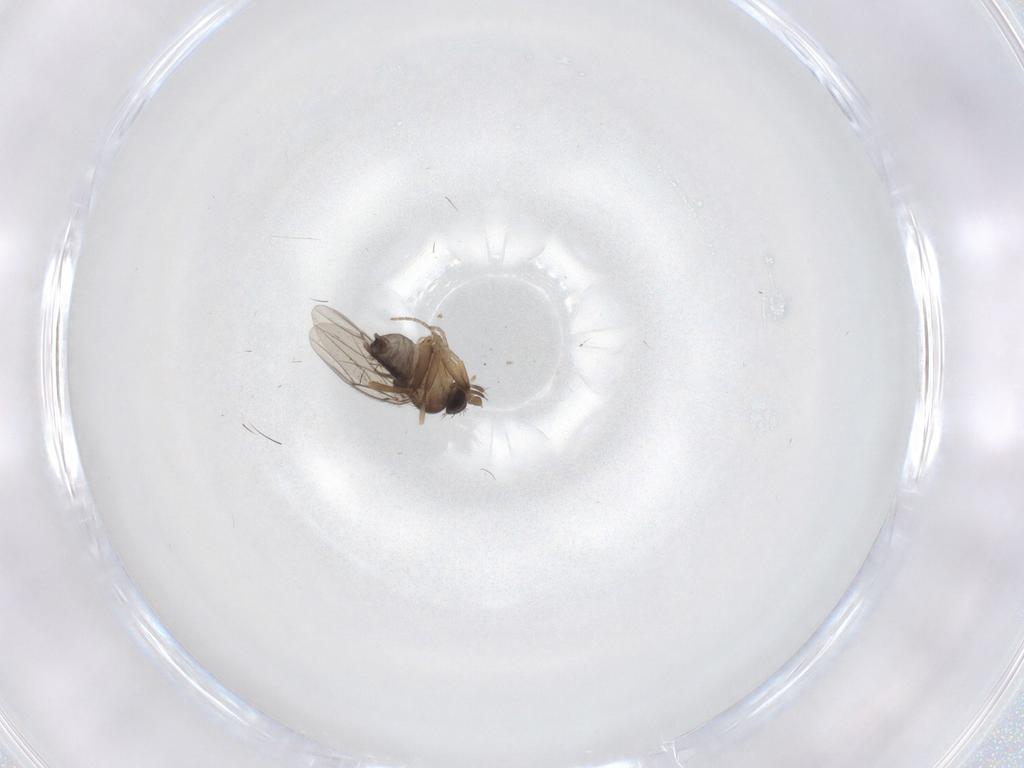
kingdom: Animalia
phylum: Arthropoda
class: Insecta
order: Diptera
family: Phoridae
